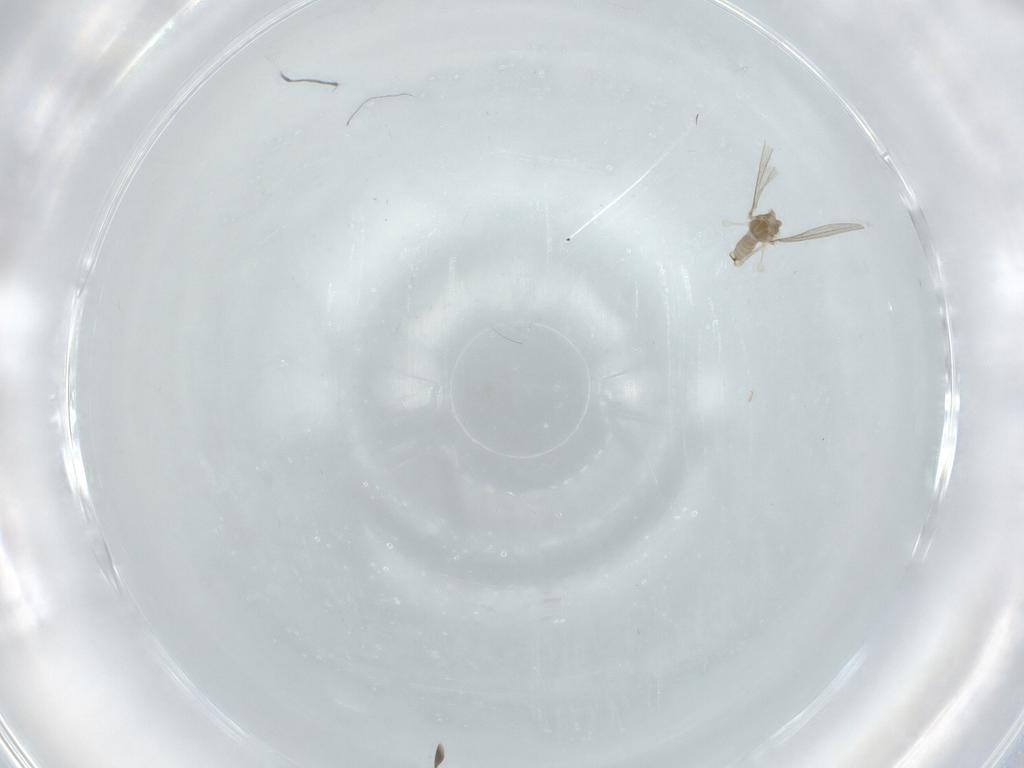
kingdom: Animalia
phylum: Arthropoda
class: Insecta
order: Diptera
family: Cecidomyiidae
